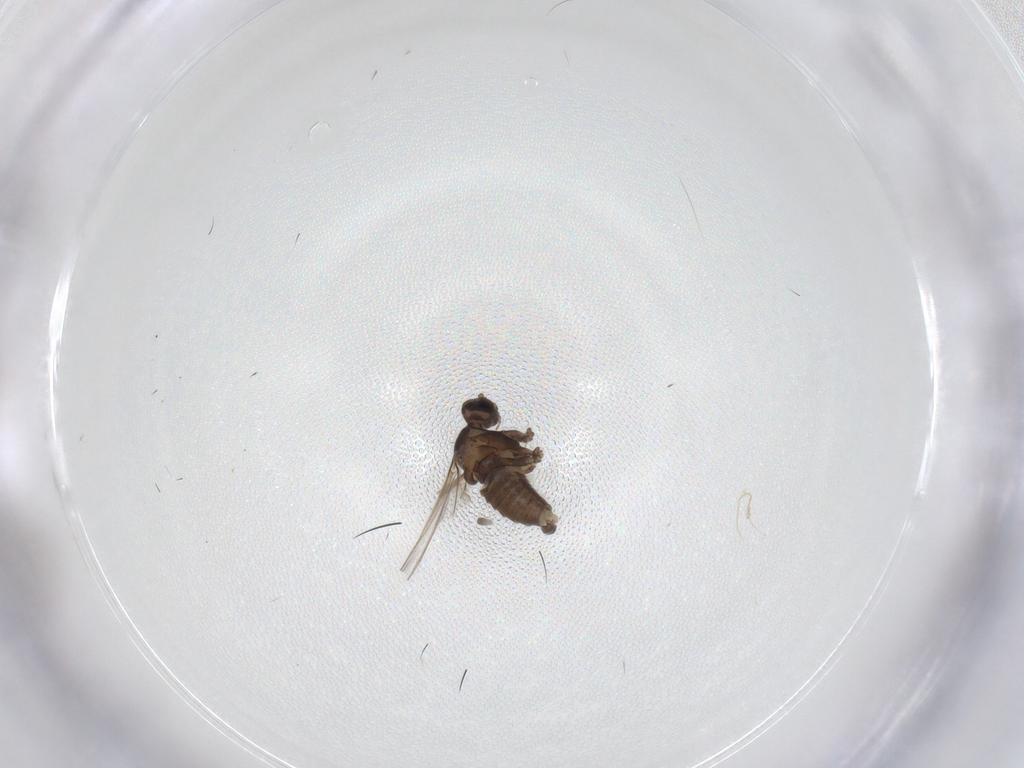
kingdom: Animalia
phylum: Arthropoda
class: Insecta
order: Diptera
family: Cecidomyiidae
